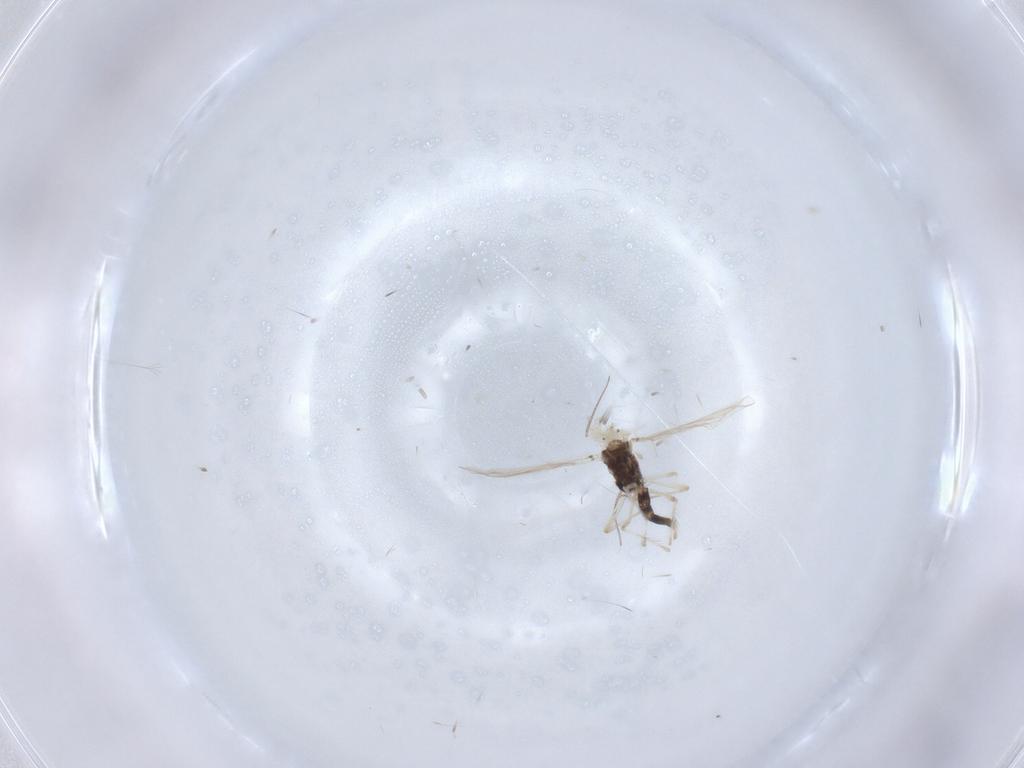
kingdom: Animalia
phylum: Arthropoda
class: Insecta
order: Diptera
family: Chironomidae
